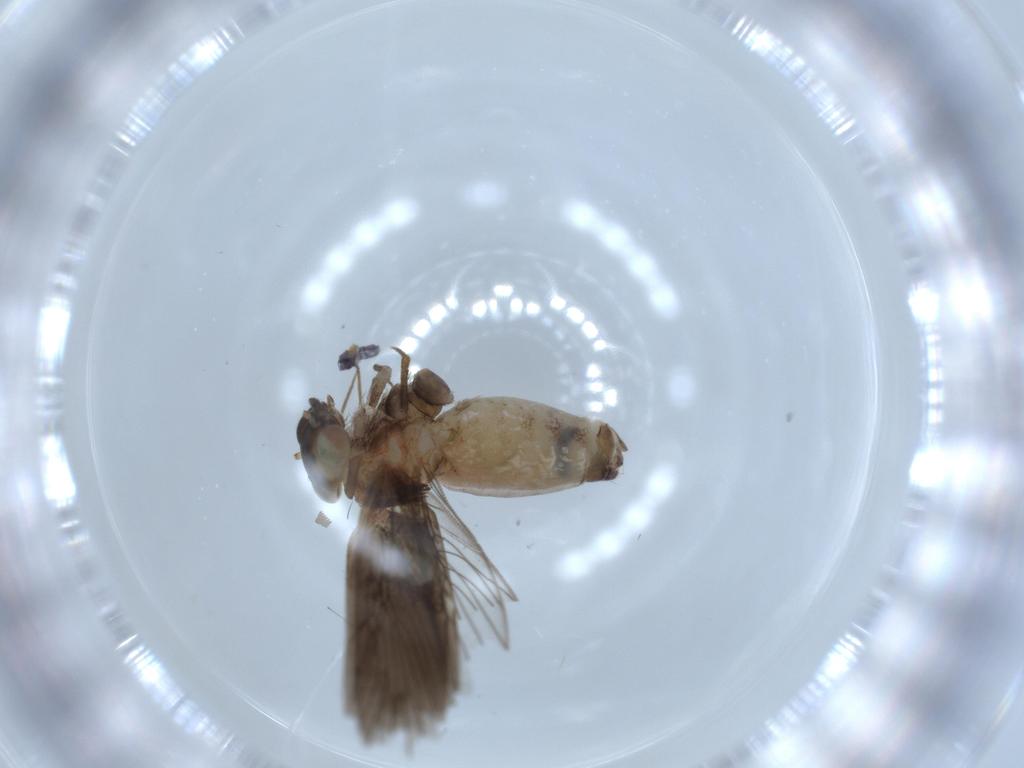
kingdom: Animalia
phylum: Arthropoda
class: Insecta
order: Psocodea
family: Lepidopsocidae
